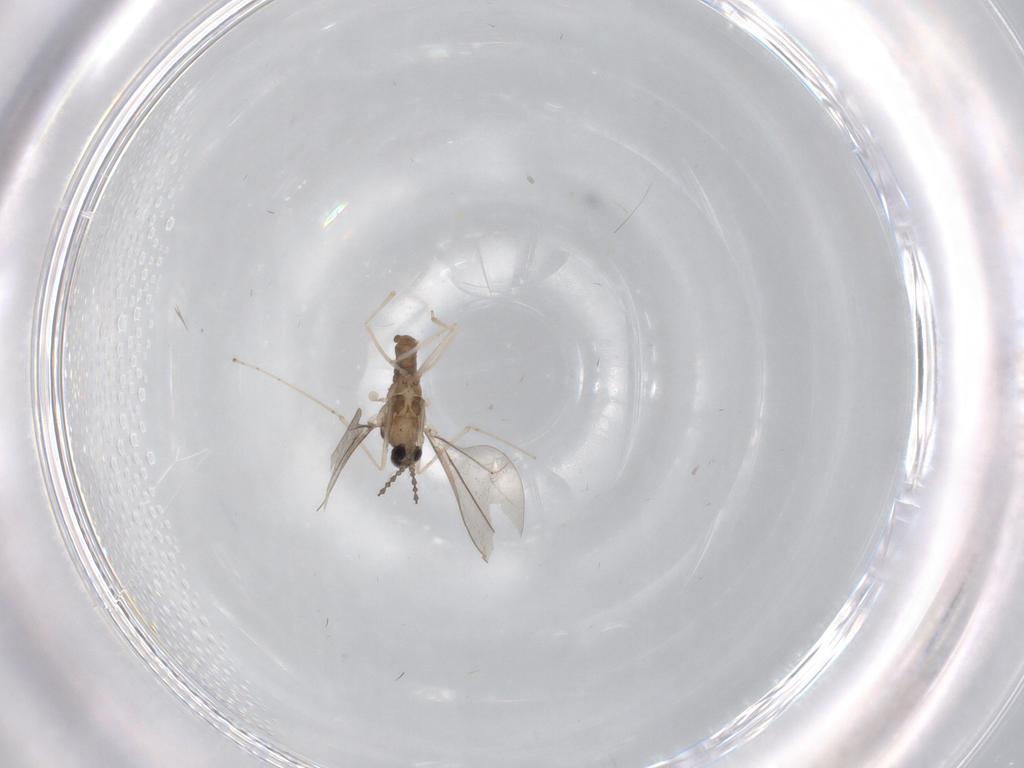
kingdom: Animalia
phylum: Arthropoda
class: Insecta
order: Diptera
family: Cecidomyiidae
